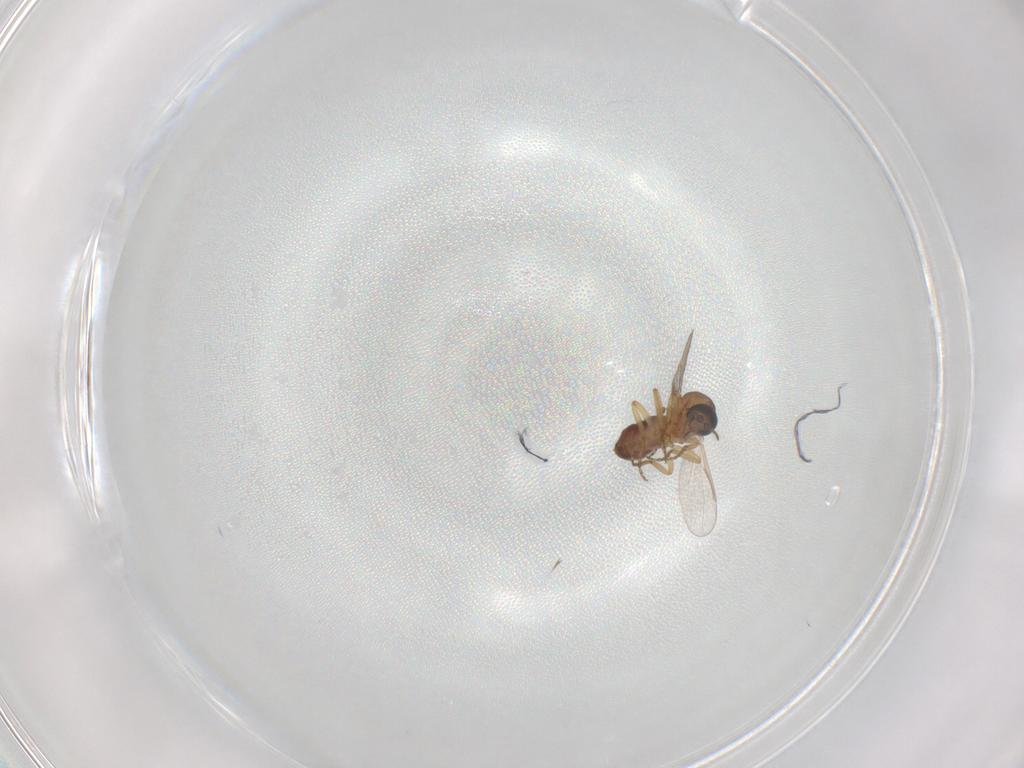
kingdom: Animalia
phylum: Arthropoda
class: Insecta
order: Diptera
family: Ceratopogonidae
